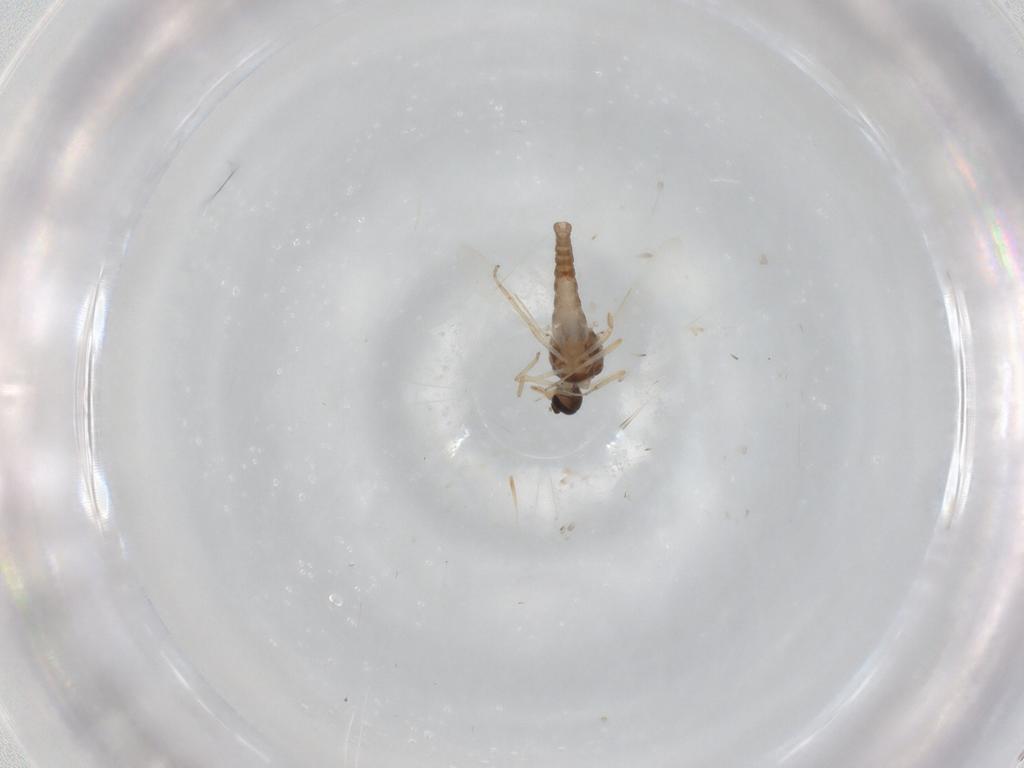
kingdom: Animalia
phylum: Arthropoda
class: Insecta
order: Diptera
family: Ceratopogonidae
